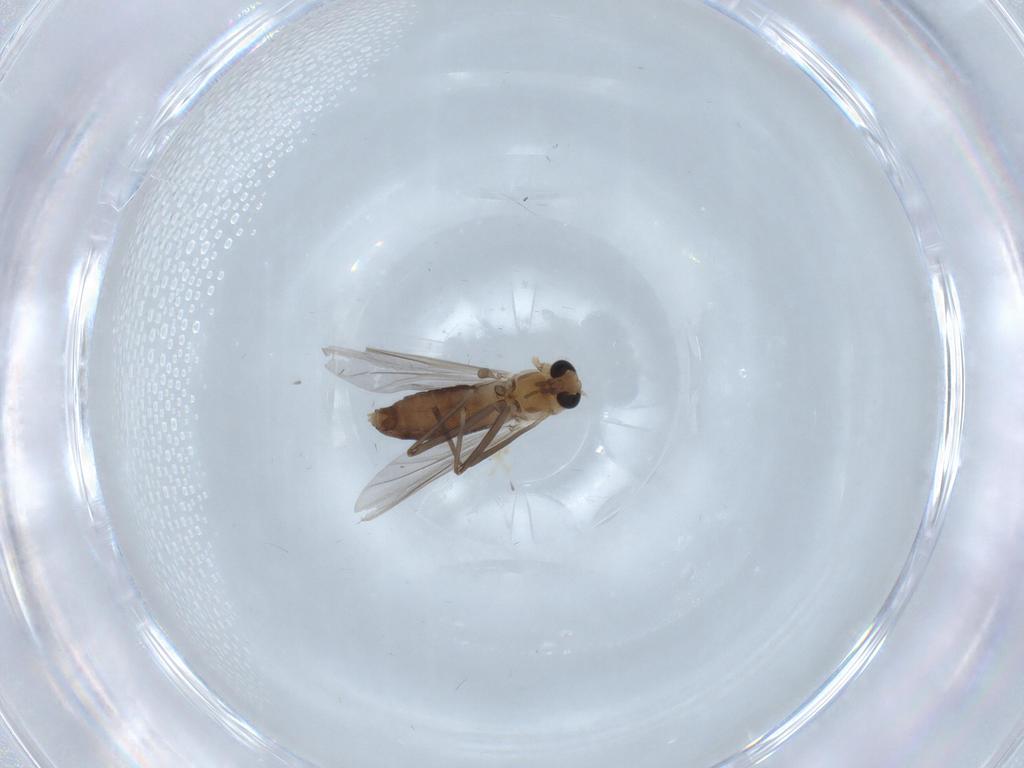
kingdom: Animalia
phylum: Arthropoda
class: Insecta
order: Diptera
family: Chironomidae
